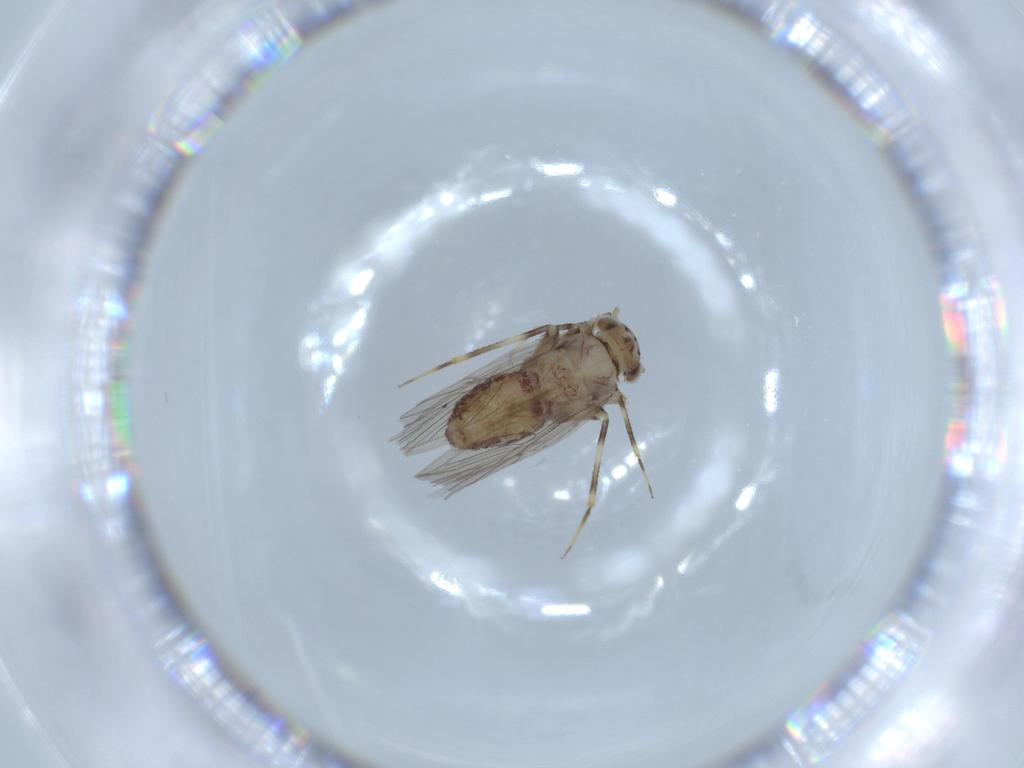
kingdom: Animalia
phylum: Arthropoda
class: Insecta
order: Psocodea
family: Lepidopsocidae
